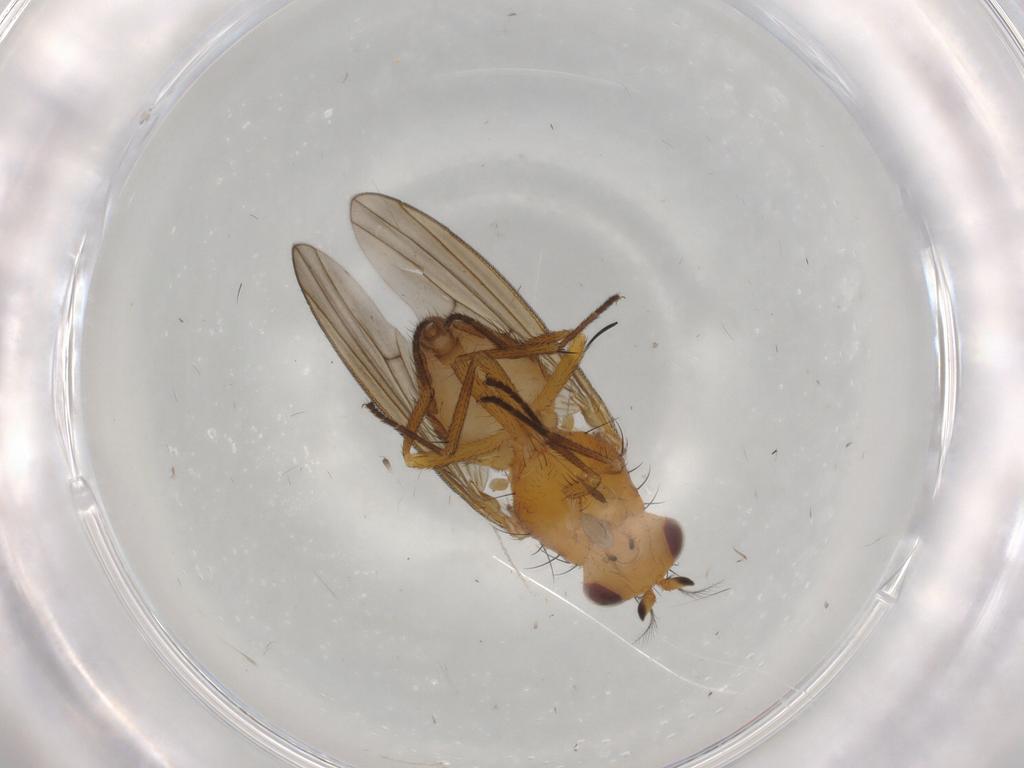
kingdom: Animalia
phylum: Arthropoda
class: Insecta
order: Diptera
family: Lauxaniidae
